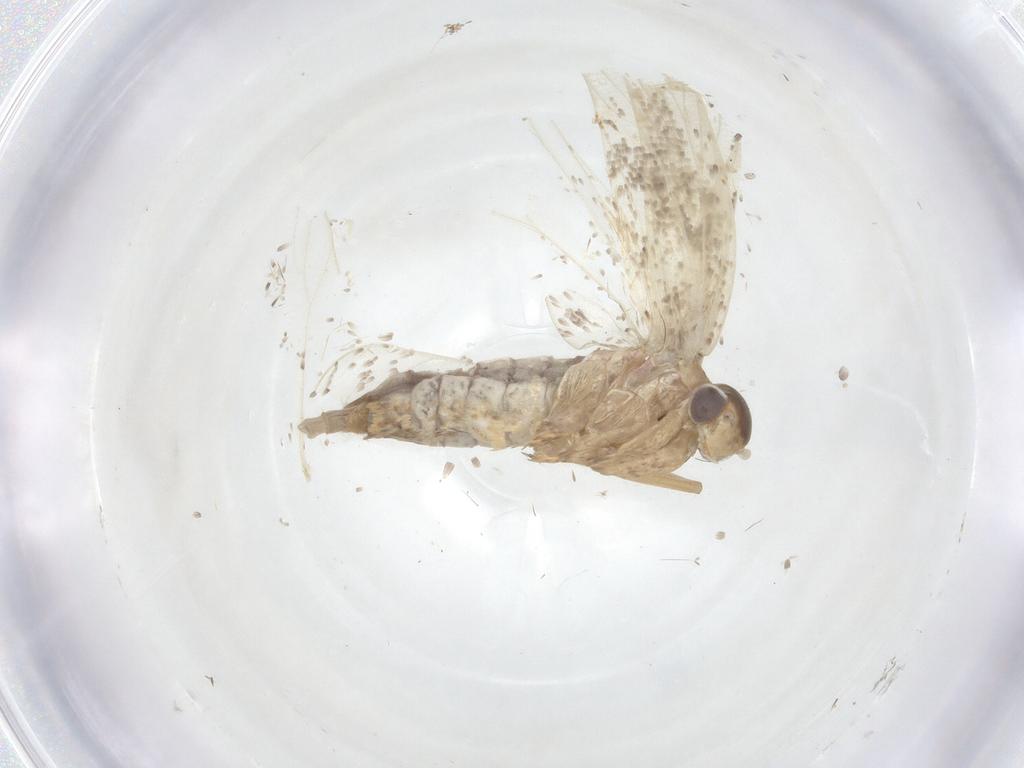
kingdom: Animalia
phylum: Arthropoda
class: Insecta
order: Lepidoptera
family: Lecithoceridae
